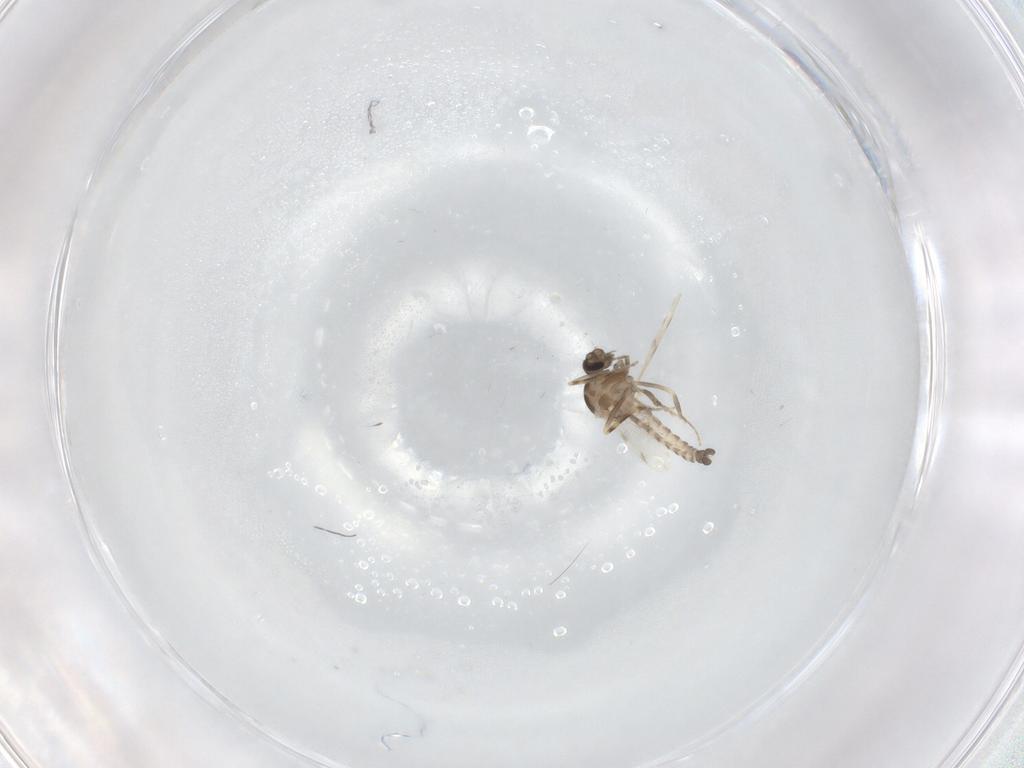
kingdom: Animalia
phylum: Arthropoda
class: Insecta
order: Diptera
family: Ceratopogonidae
